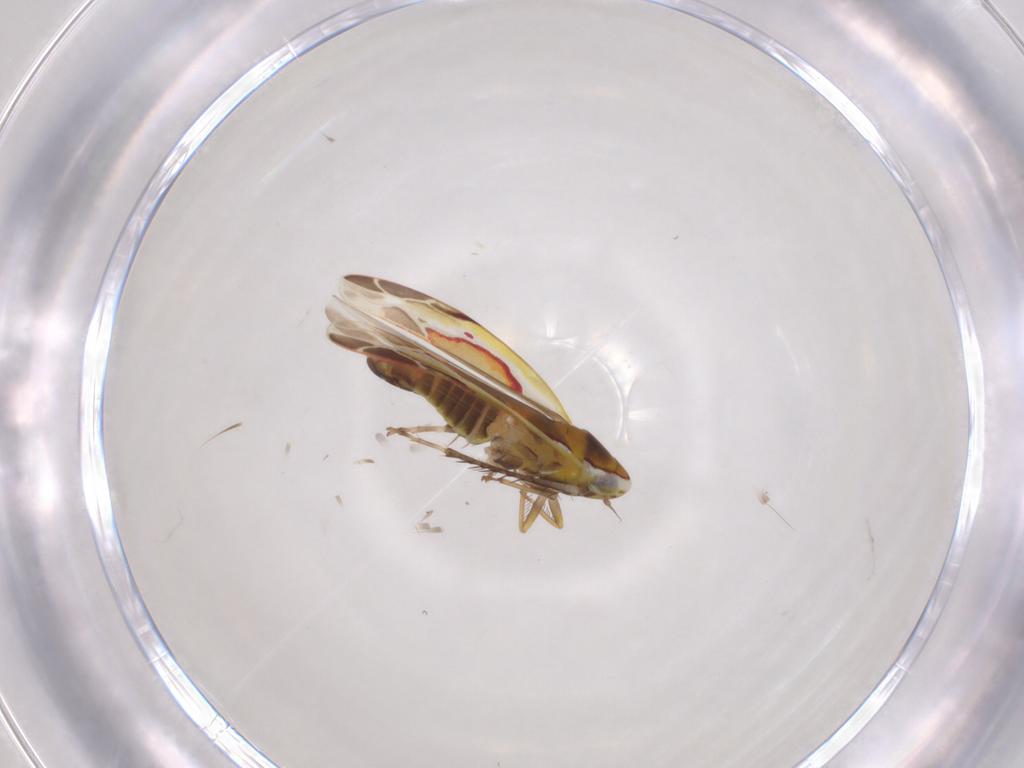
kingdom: Animalia
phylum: Arthropoda
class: Insecta
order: Hemiptera
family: Cicadellidae
